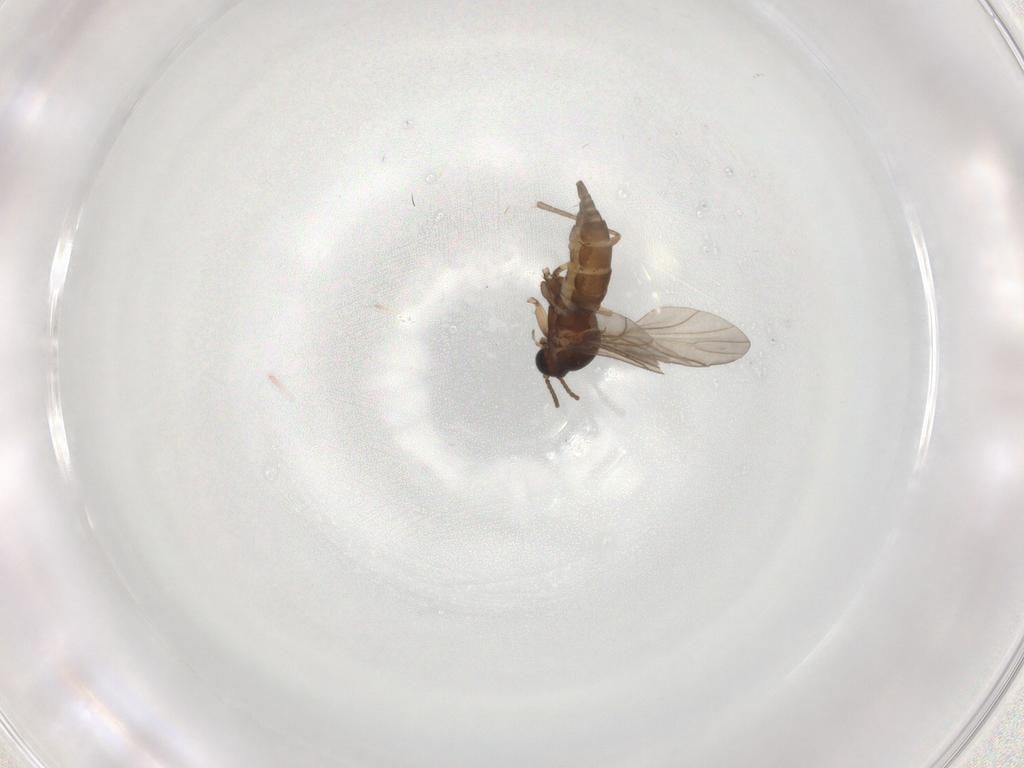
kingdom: Animalia
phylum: Arthropoda
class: Insecta
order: Diptera
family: Sciaridae
